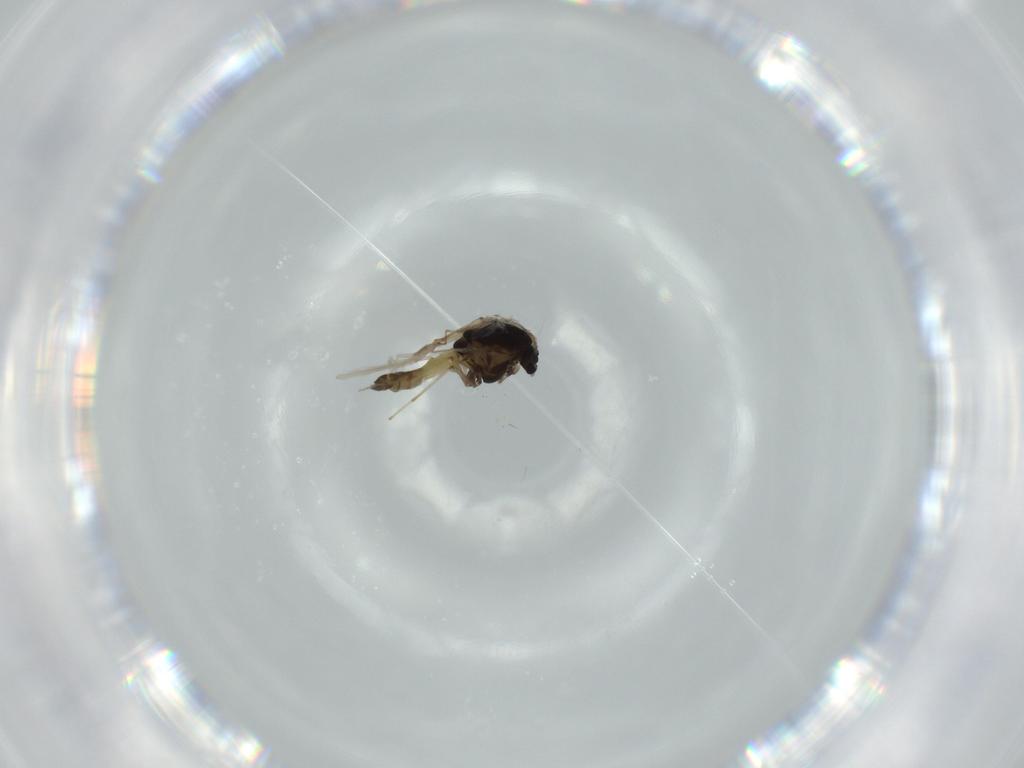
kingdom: Animalia
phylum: Arthropoda
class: Insecta
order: Diptera
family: Chironomidae
